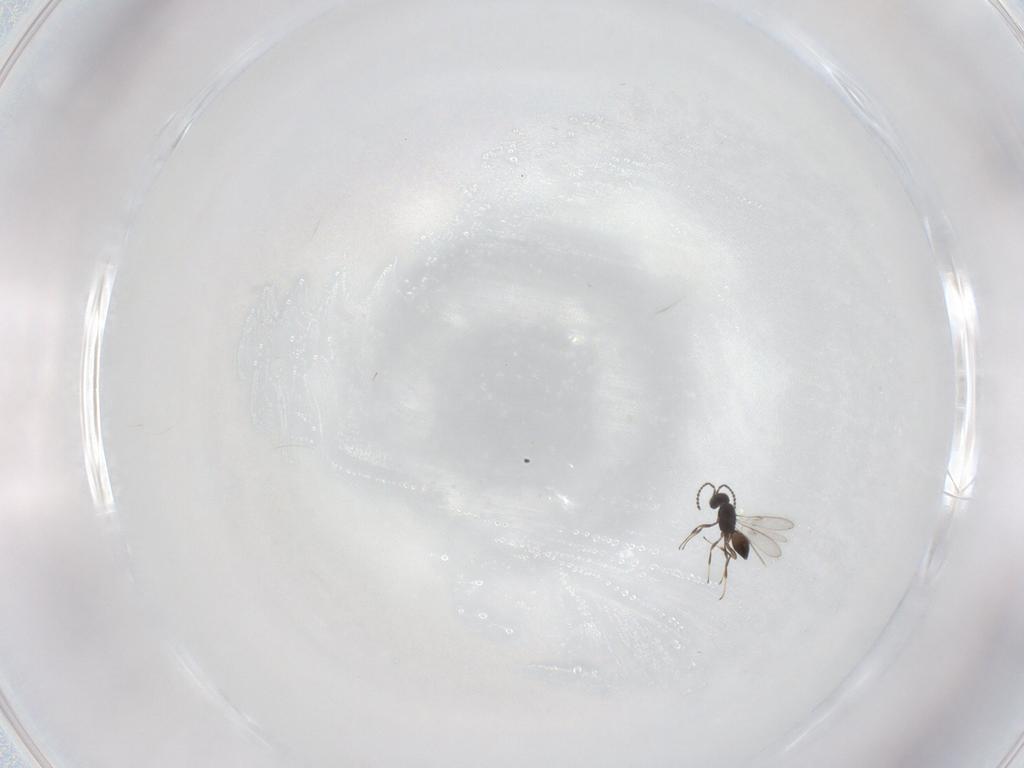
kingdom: Animalia
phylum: Arthropoda
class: Insecta
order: Hymenoptera
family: Scelionidae
